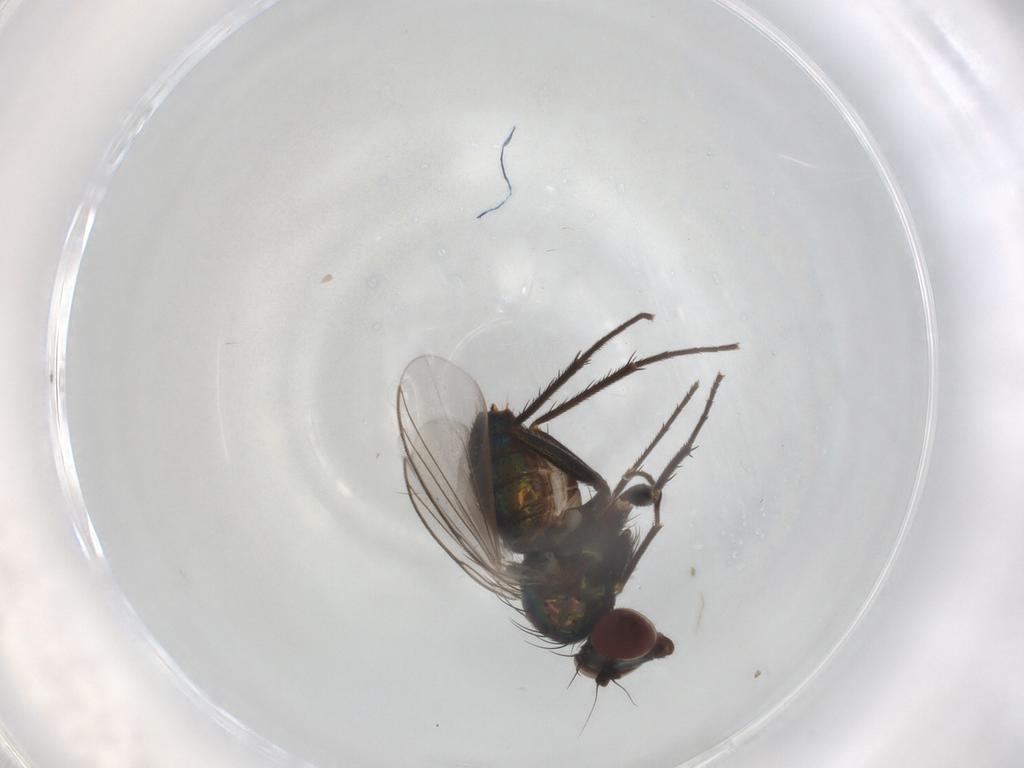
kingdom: Animalia
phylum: Arthropoda
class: Insecta
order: Diptera
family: Dolichopodidae
